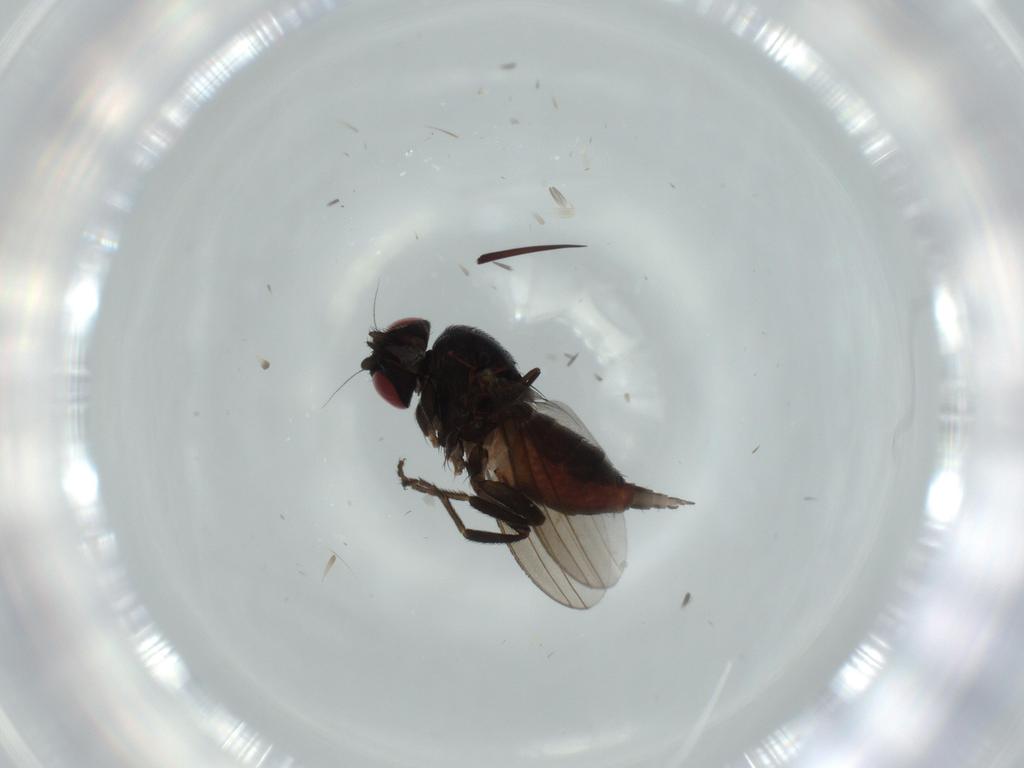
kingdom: Animalia
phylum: Arthropoda
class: Insecta
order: Diptera
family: Milichiidae
